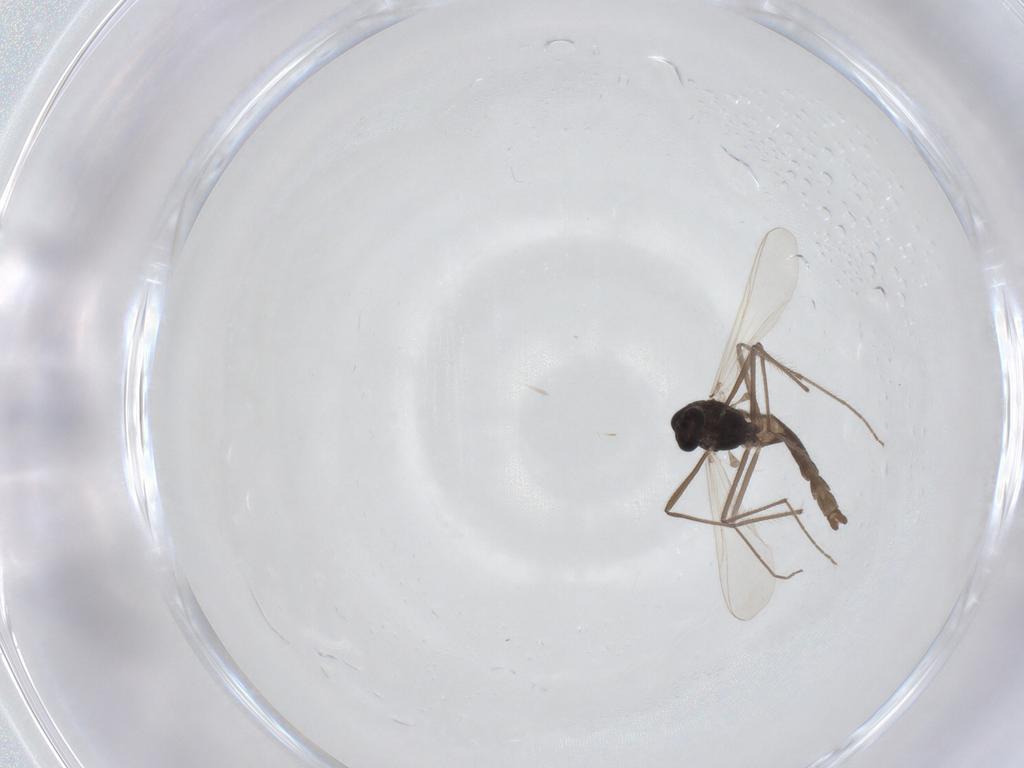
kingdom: Animalia
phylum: Arthropoda
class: Insecta
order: Diptera
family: Chironomidae
